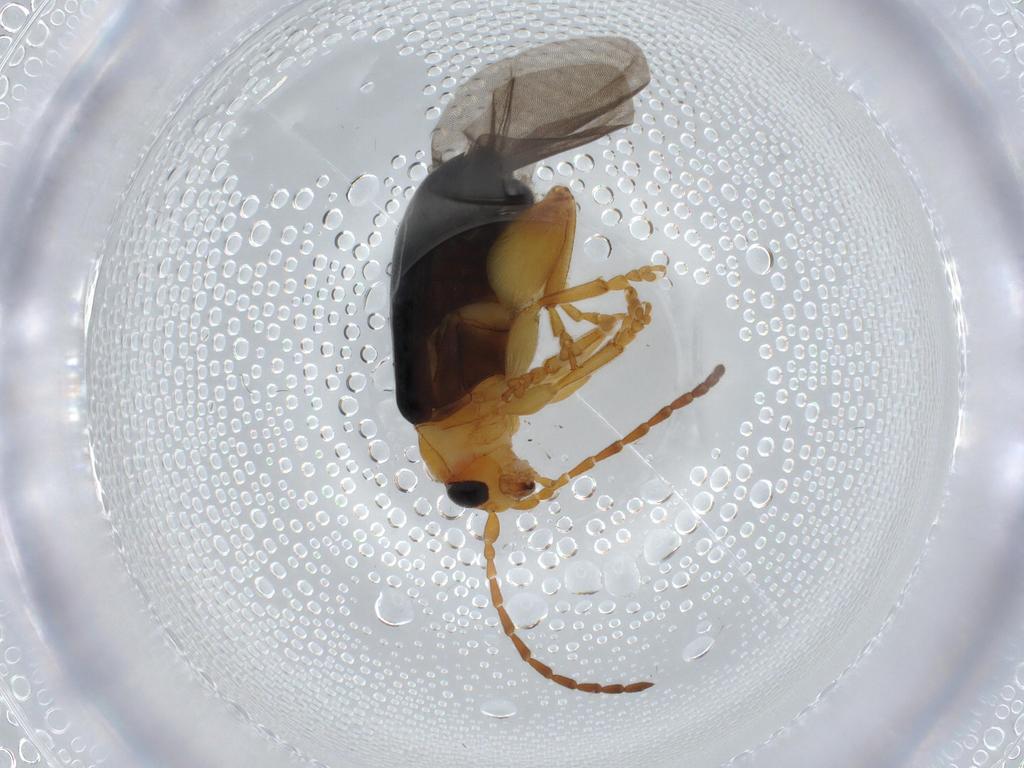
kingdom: Animalia
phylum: Arthropoda
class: Insecta
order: Coleoptera
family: Chrysomelidae
